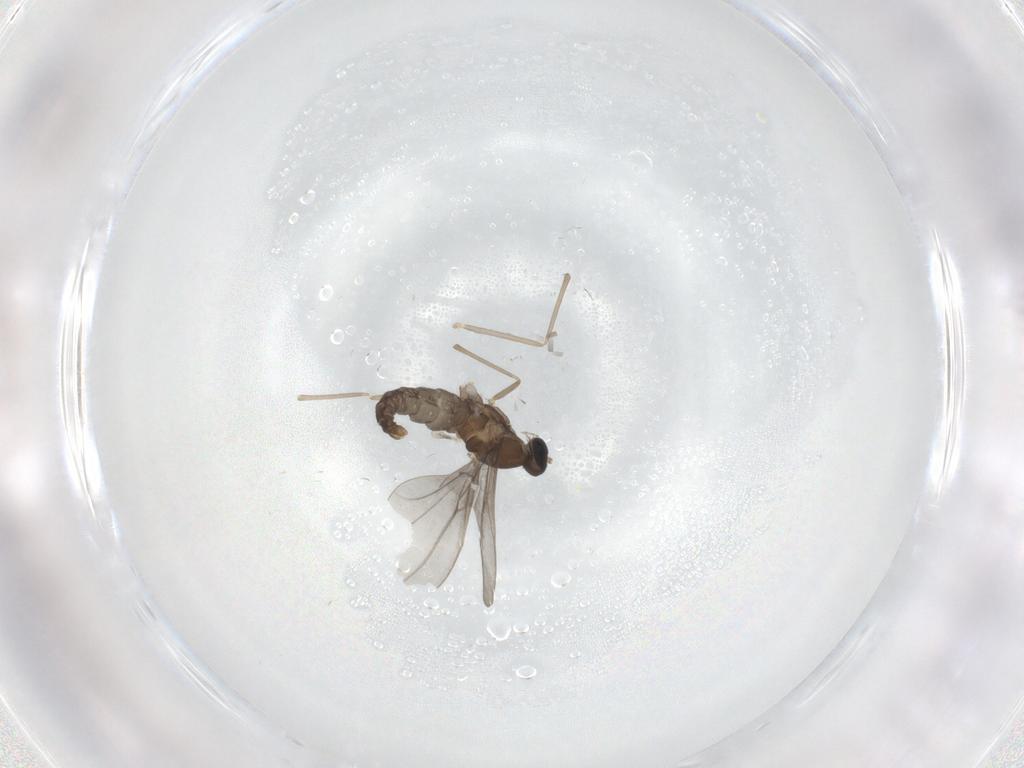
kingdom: Animalia
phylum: Arthropoda
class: Insecta
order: Diptera
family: Cecidomyiidae
